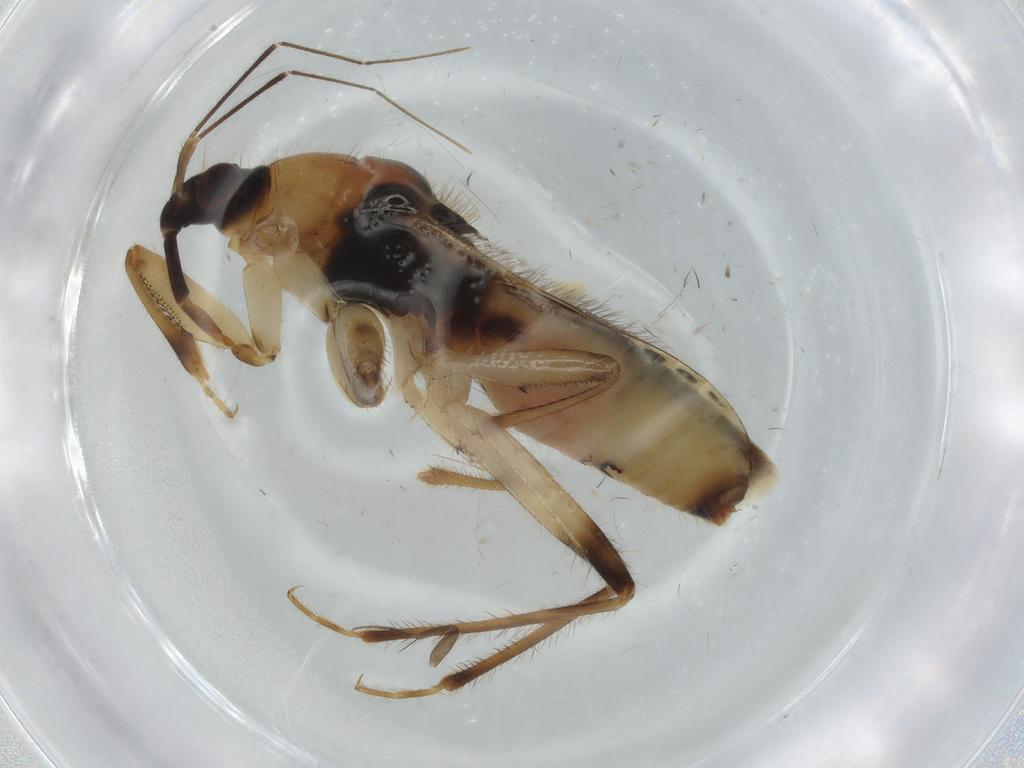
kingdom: Animalia
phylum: Arthropoda
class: Insecta
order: Hemiptera
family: Nabidae
